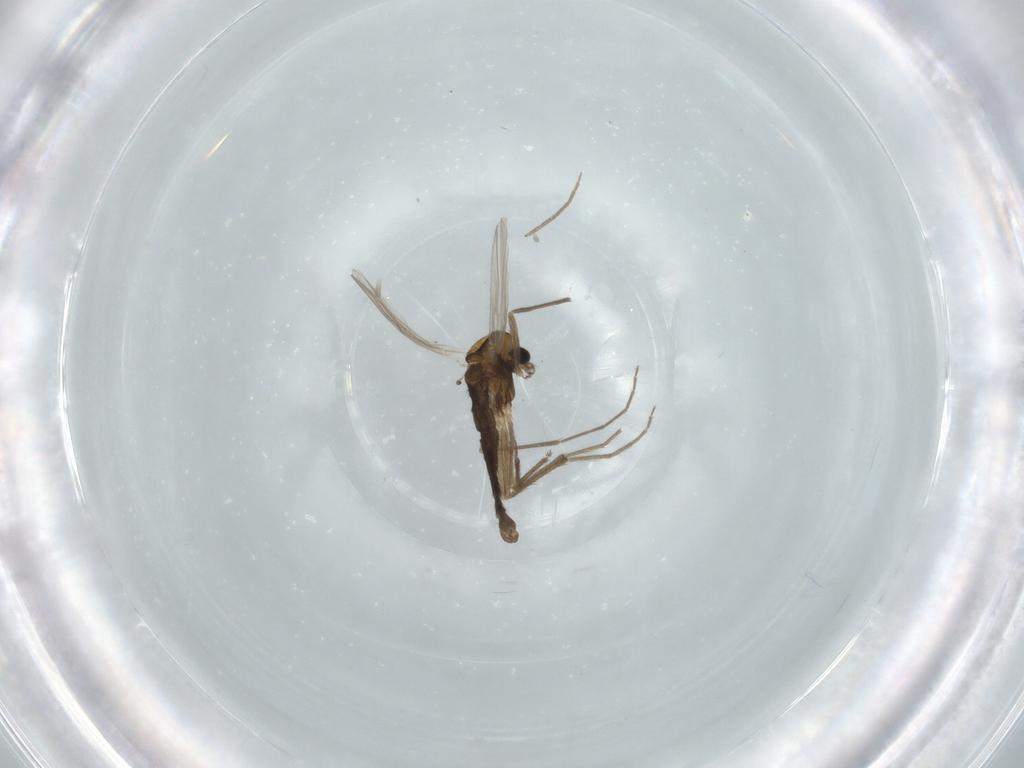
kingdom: Animalia
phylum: Arthropoda
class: Insecta
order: Diptera
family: Chironomidae
